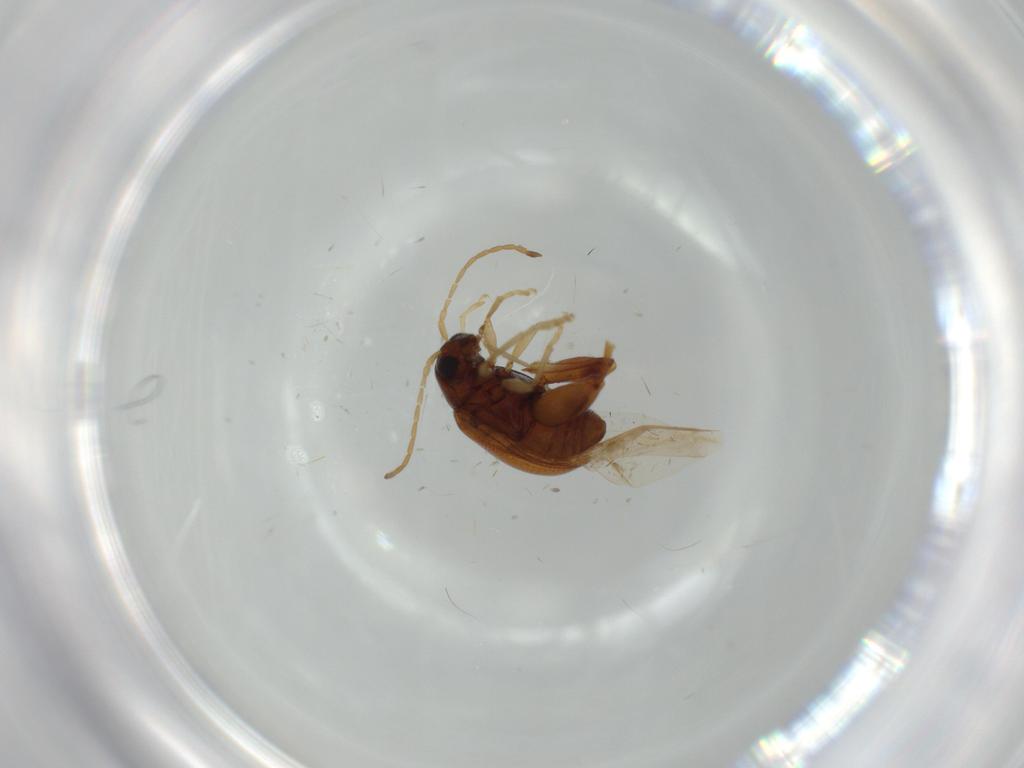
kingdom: Animalia
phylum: Arthropoda
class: Insecta
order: Coleoptera
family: Chrysomelidae
